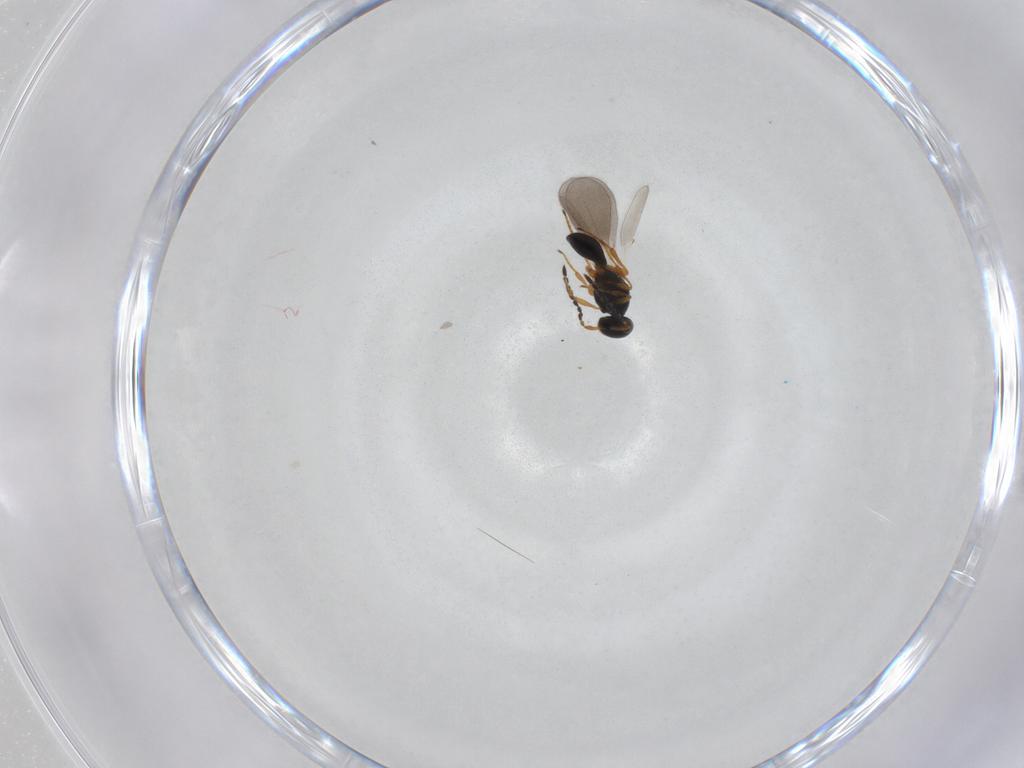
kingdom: Animalia
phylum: Arthropoda
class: Insecta
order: Hymenoptera
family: Platygastridae
